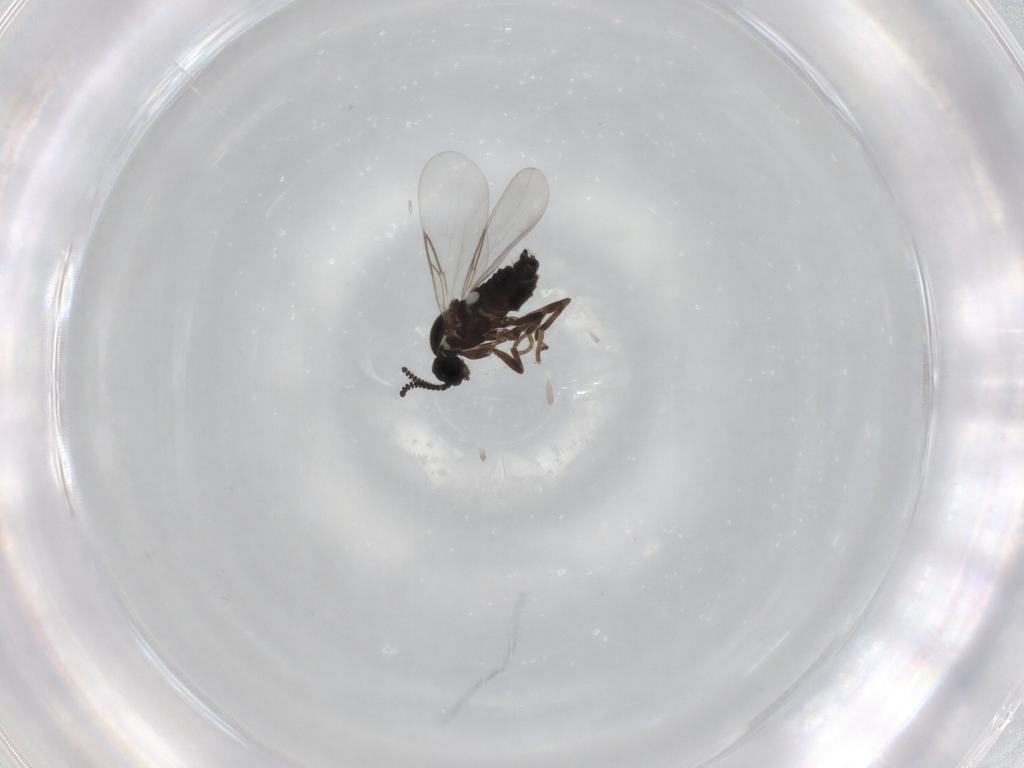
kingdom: Animalia
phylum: Arthropoda
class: Insecta
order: Diptera
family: Scatopsidae
